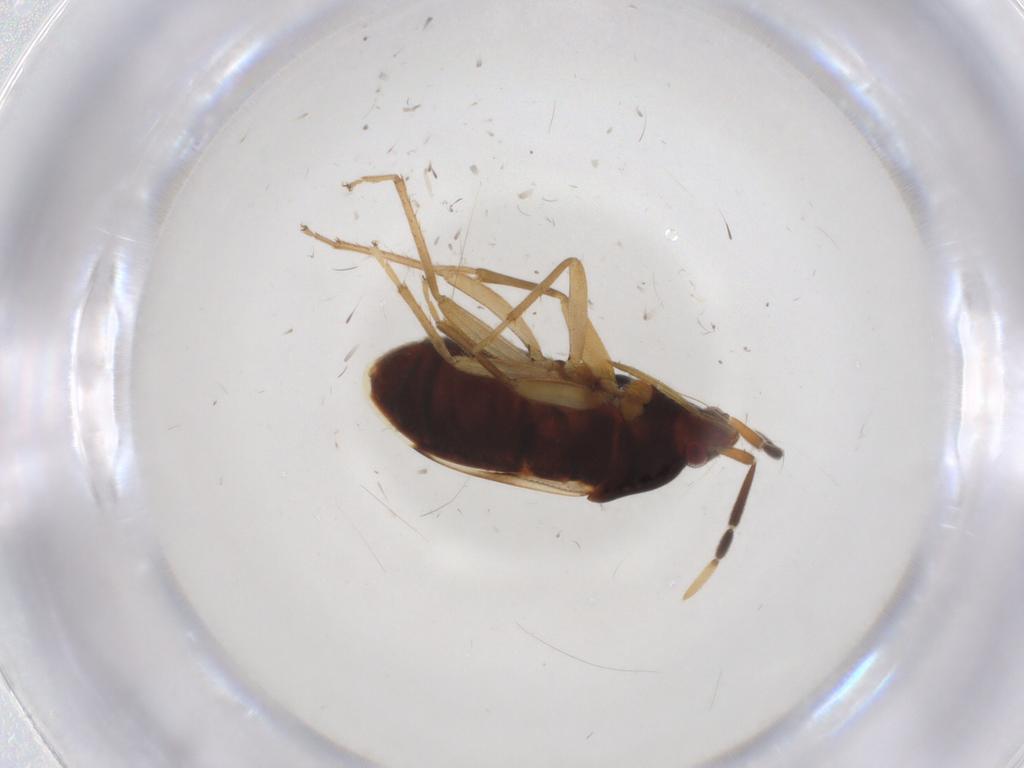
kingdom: Animalia
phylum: Arthropoda
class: Insecta
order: Hemiptera
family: Rhyparochromidae
